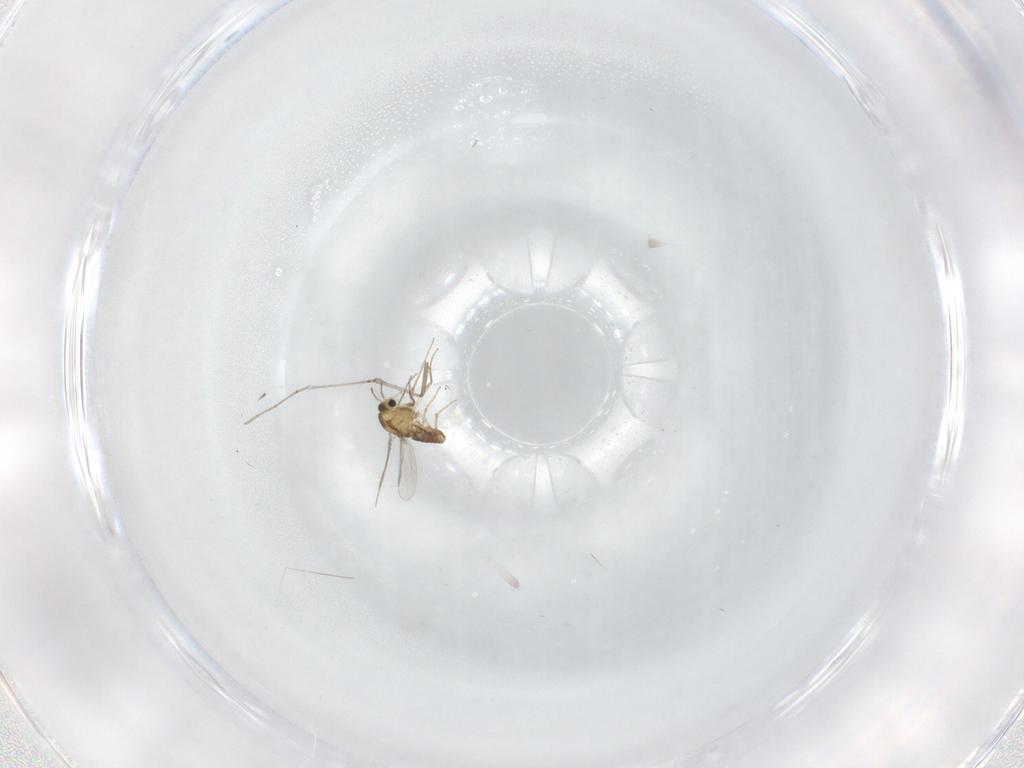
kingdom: Animalia
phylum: Arthropoda
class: Insecta
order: Diptera
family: Chironomidae
